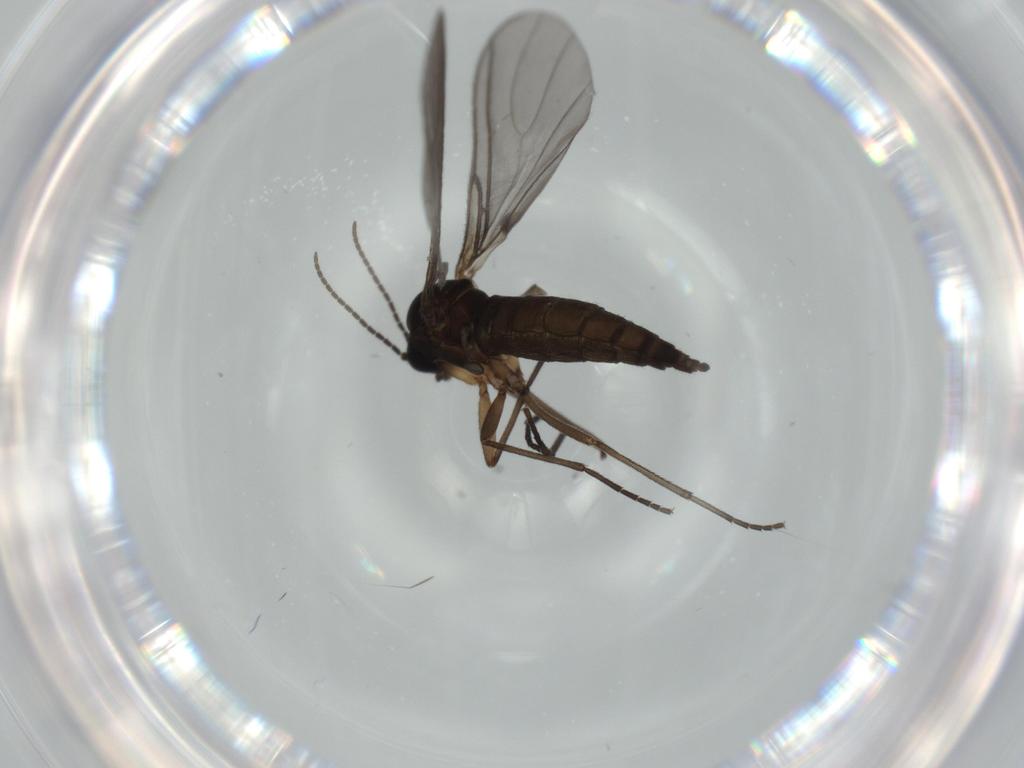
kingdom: Animalia
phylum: Arthropoda
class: Insecta
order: Diptera
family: Sciaridae
